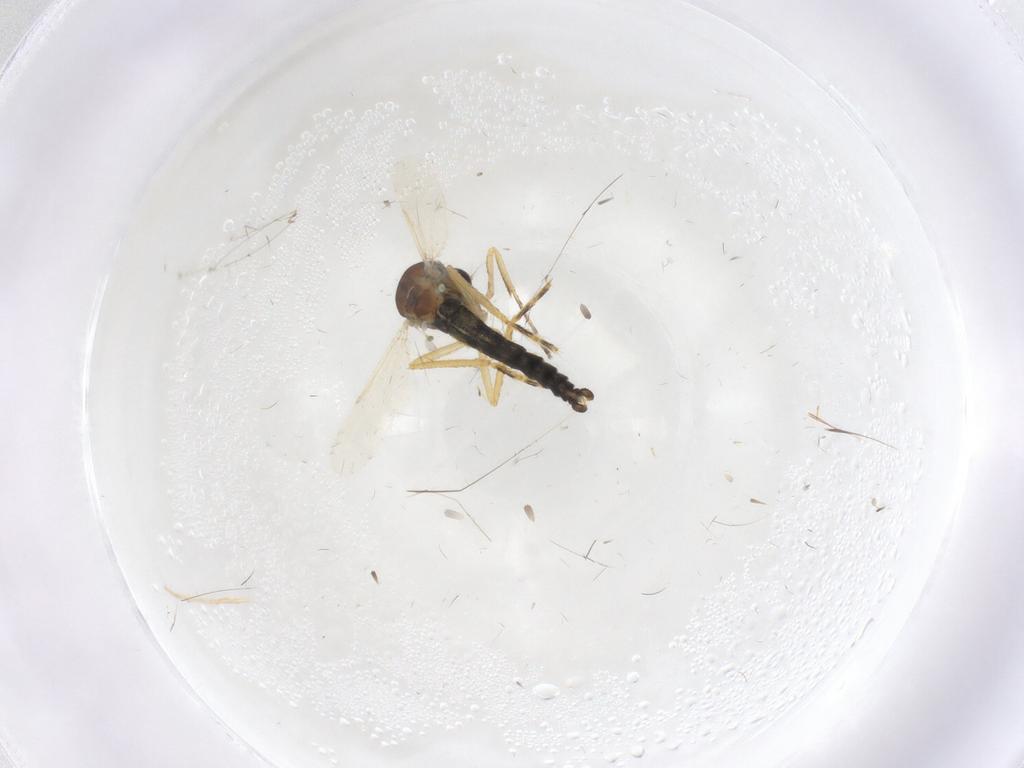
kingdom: Animalia
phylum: Arthropoda
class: Insecta
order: Diptera
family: Ceratopogonidae
